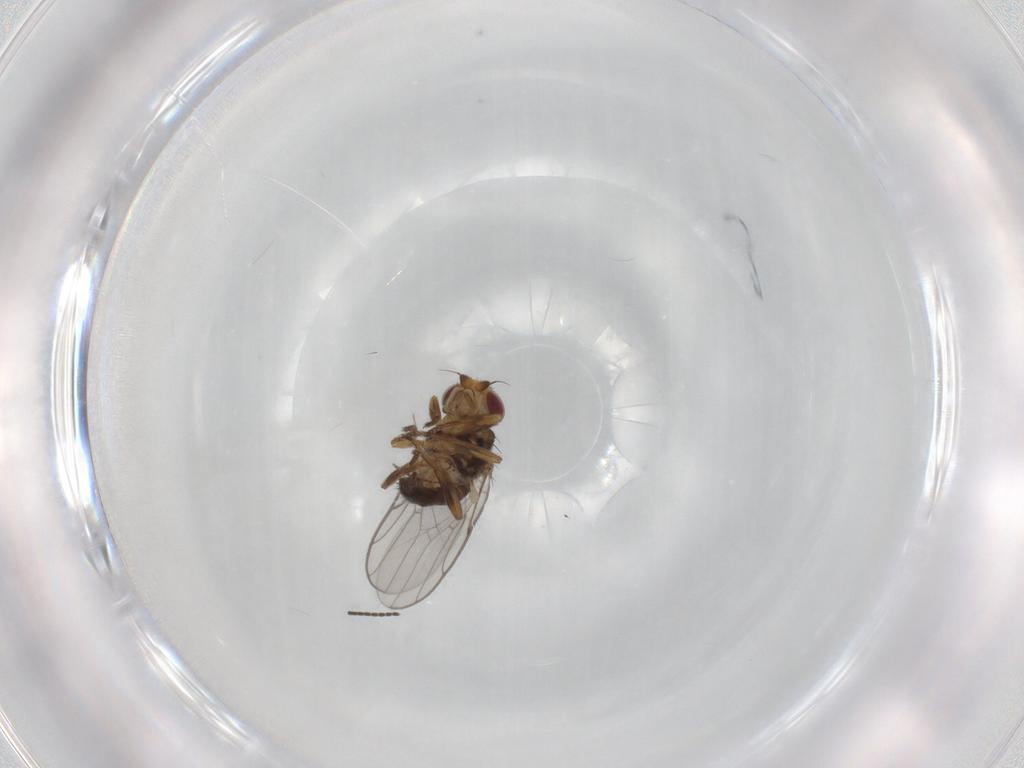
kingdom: Animalia
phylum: Arthropoda
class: Insecta
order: Diptera
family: Chloropidae
